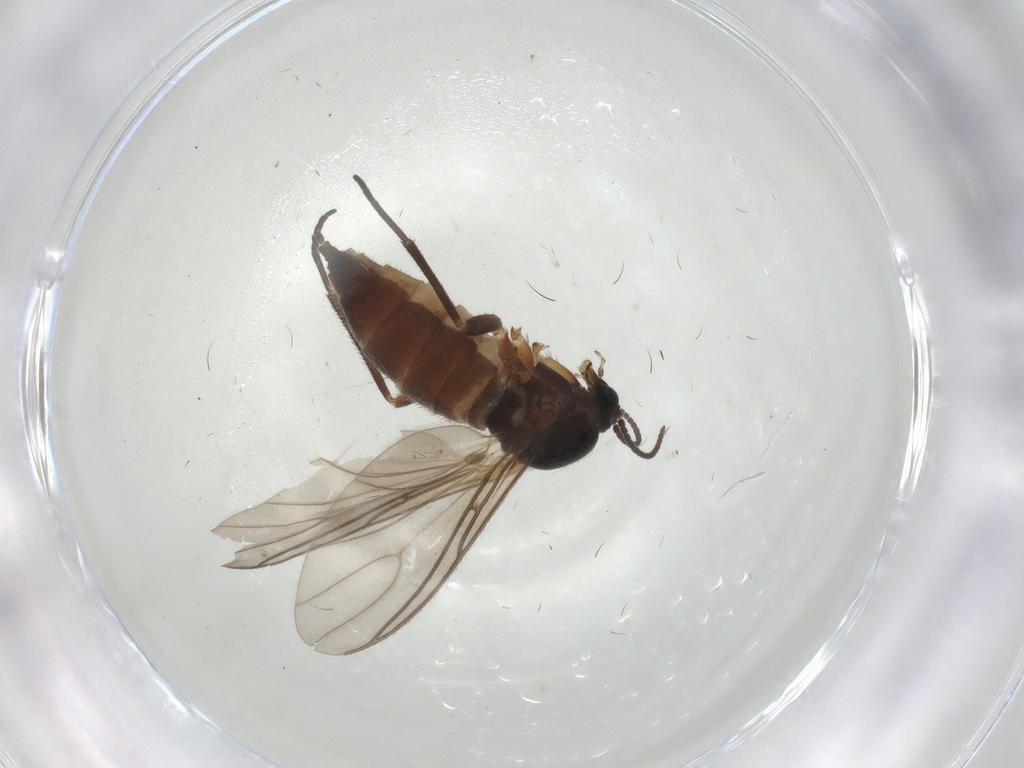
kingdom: Animalia
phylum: Arthropoda
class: Insecta
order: Diptera
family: Sciaridae
